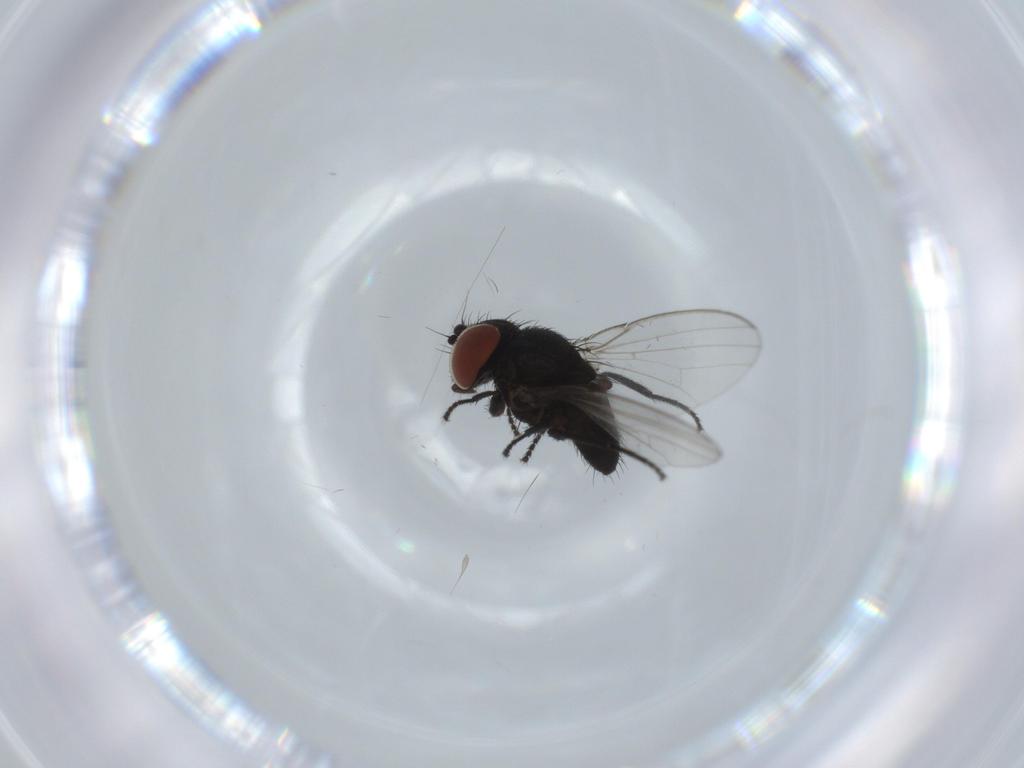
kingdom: Animalia
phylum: Arthropoda
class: Insecta
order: Diptera
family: Milichiidae
